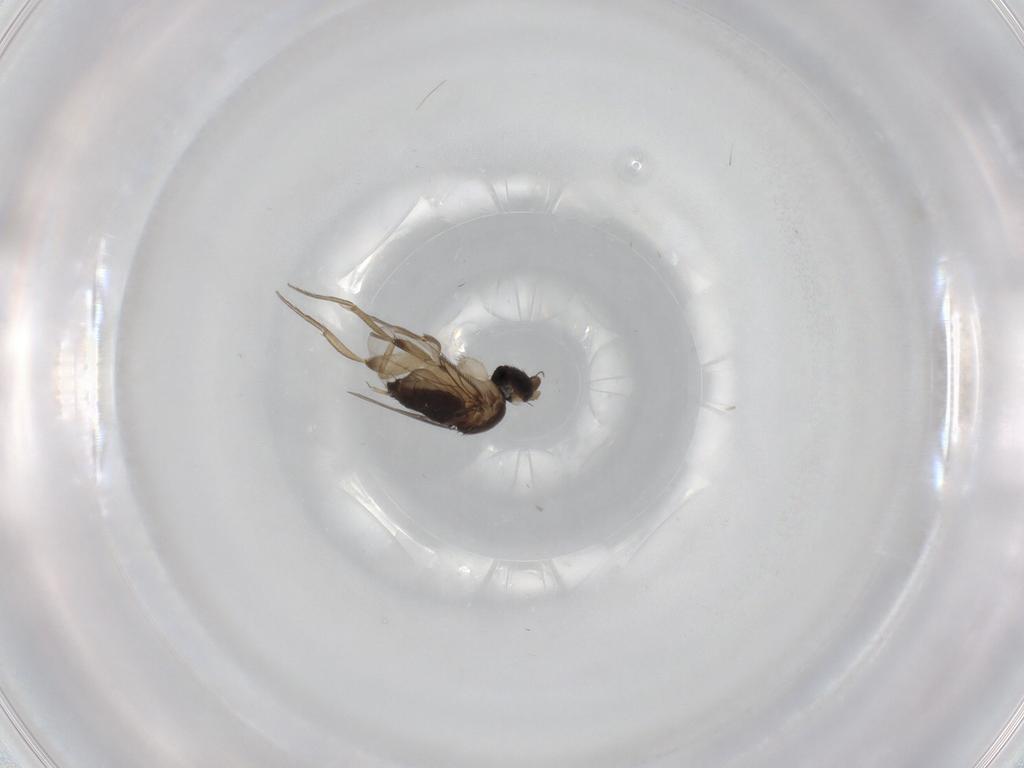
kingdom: Animalia
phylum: Arthropoda
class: Insecta
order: Diptera
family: Phoridae
